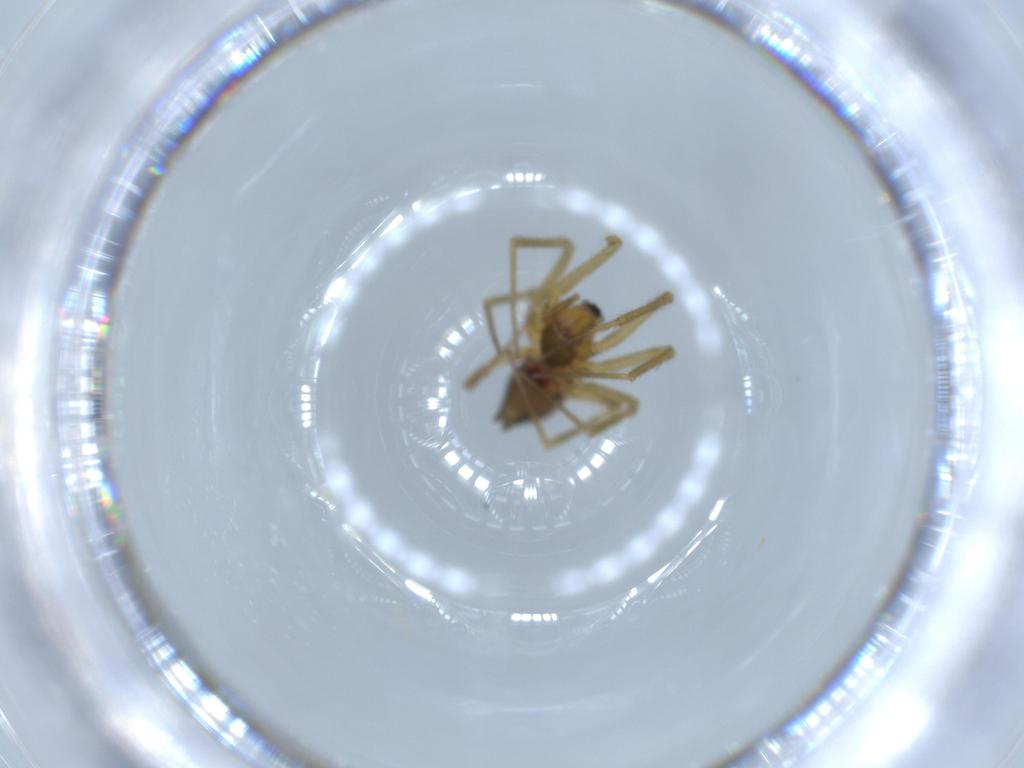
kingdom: Animalia
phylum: Arthropoda
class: Arachnida
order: Araneae
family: Linyphiidae
